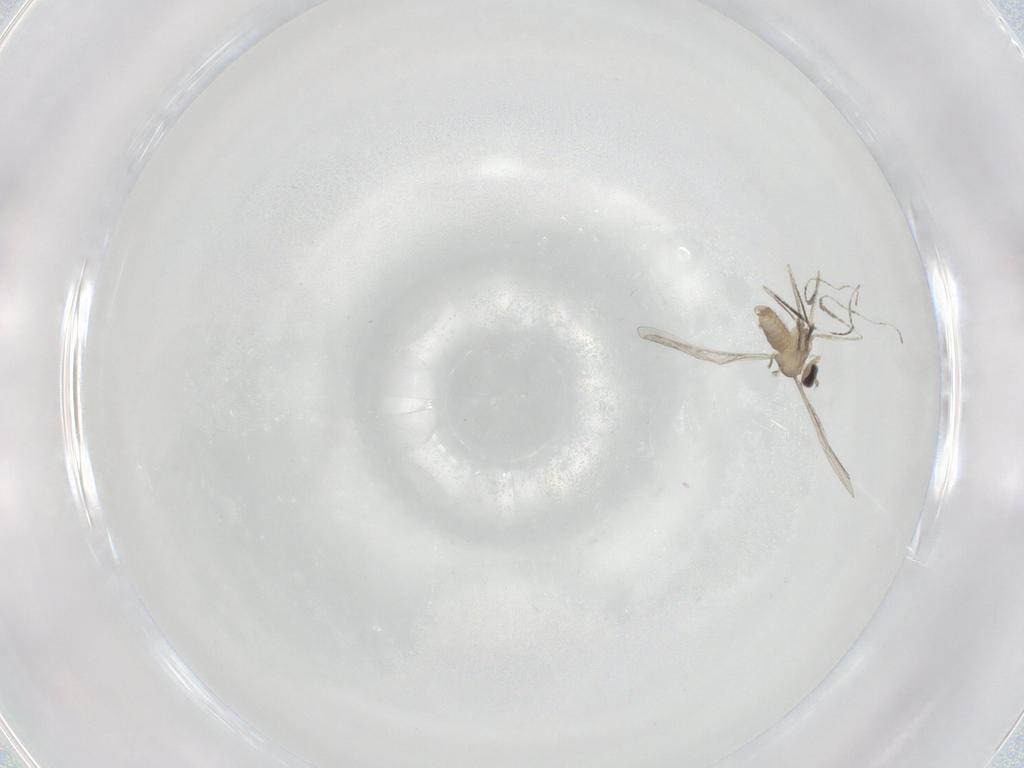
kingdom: Animalia
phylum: Arthropoda
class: Insecta
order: Diptera
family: Cecidomyiidae
